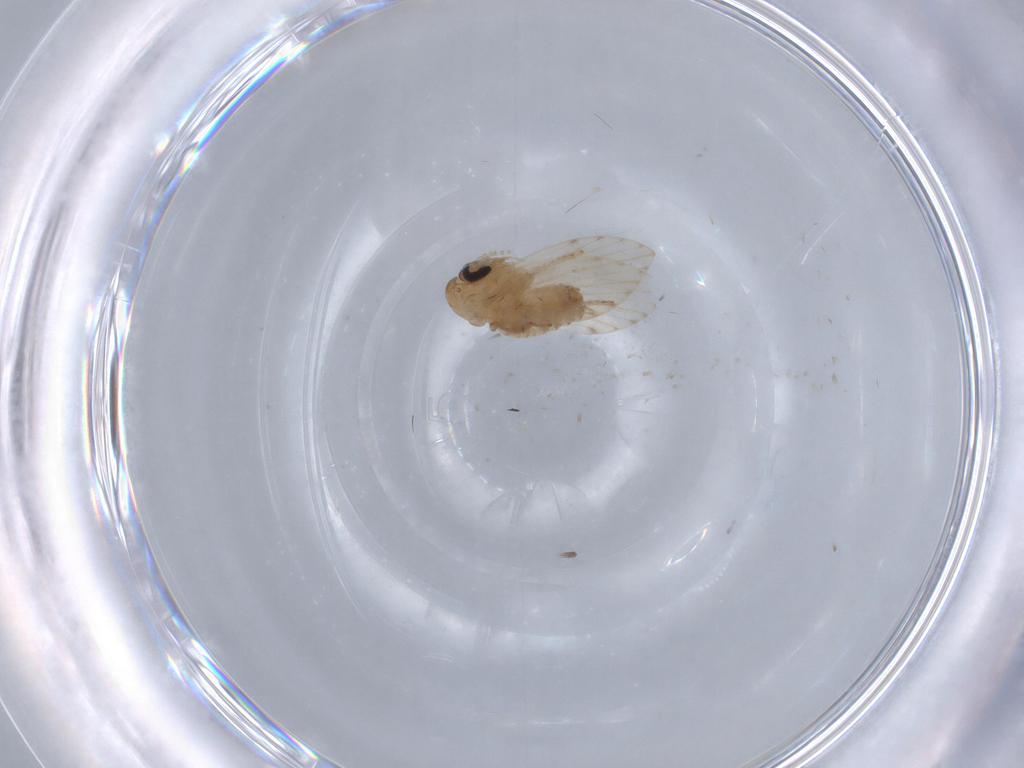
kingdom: Animalia
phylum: Arthropoda
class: Insecta
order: Diptera
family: Psychodidae
